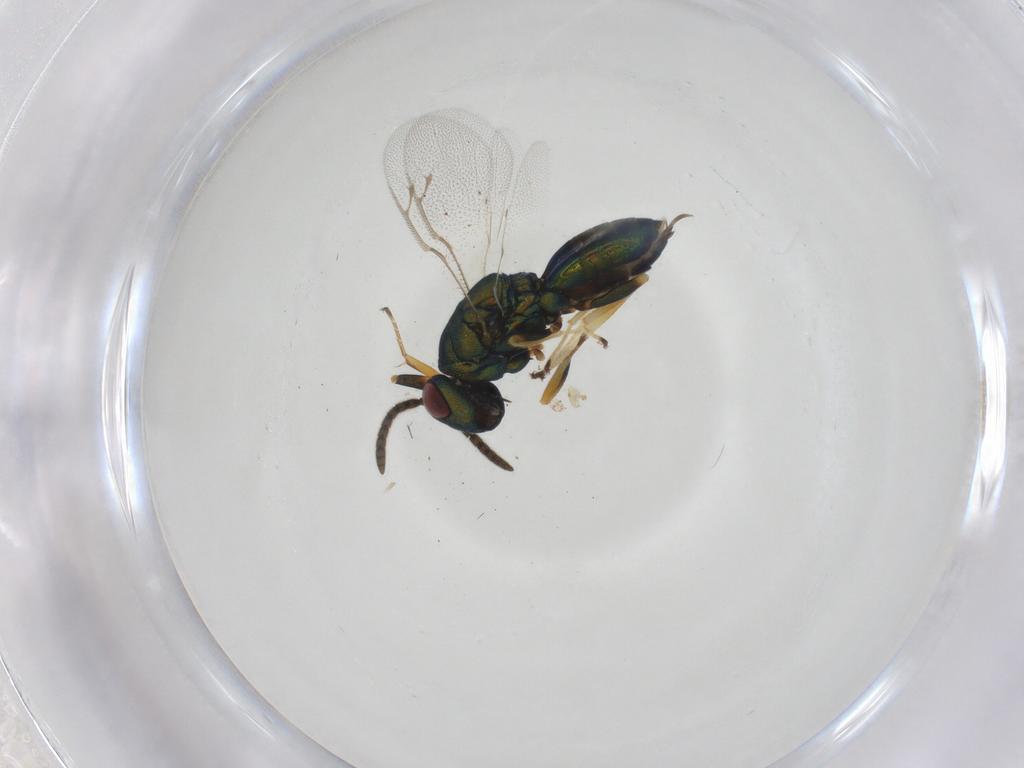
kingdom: Animalia
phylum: Arthropoda
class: Insecta
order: Hymenoptera
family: Pteromalidae
